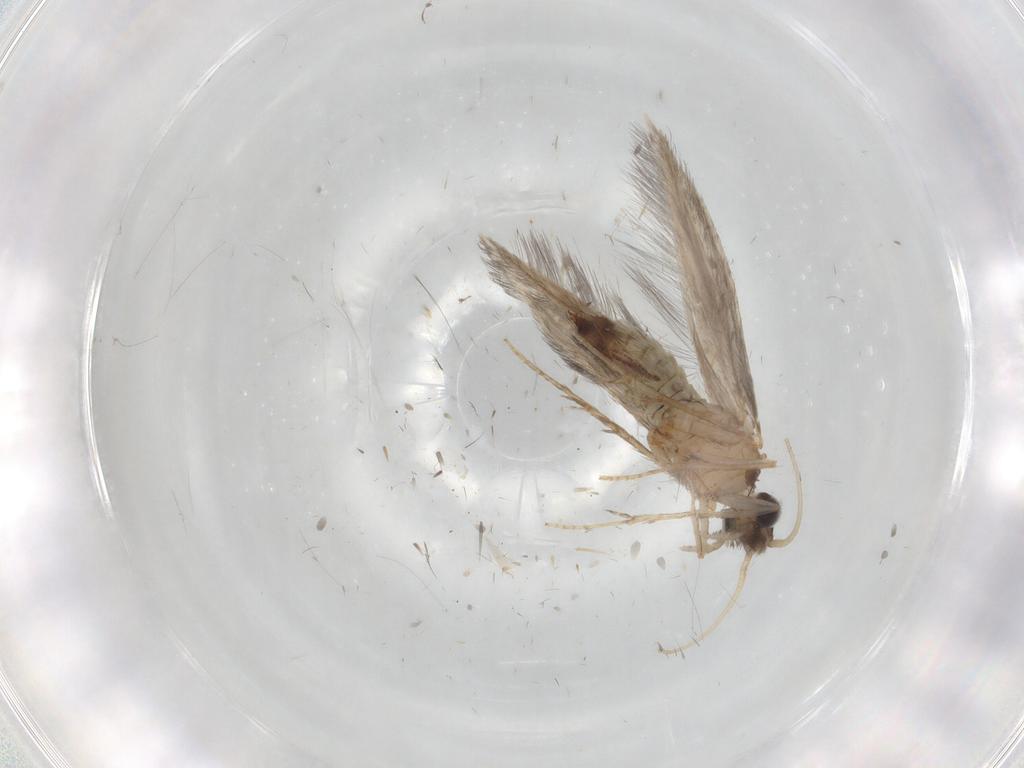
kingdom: Animalia
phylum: Arthropoda
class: Insecta
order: Trichoptera
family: Hydroptilidae
